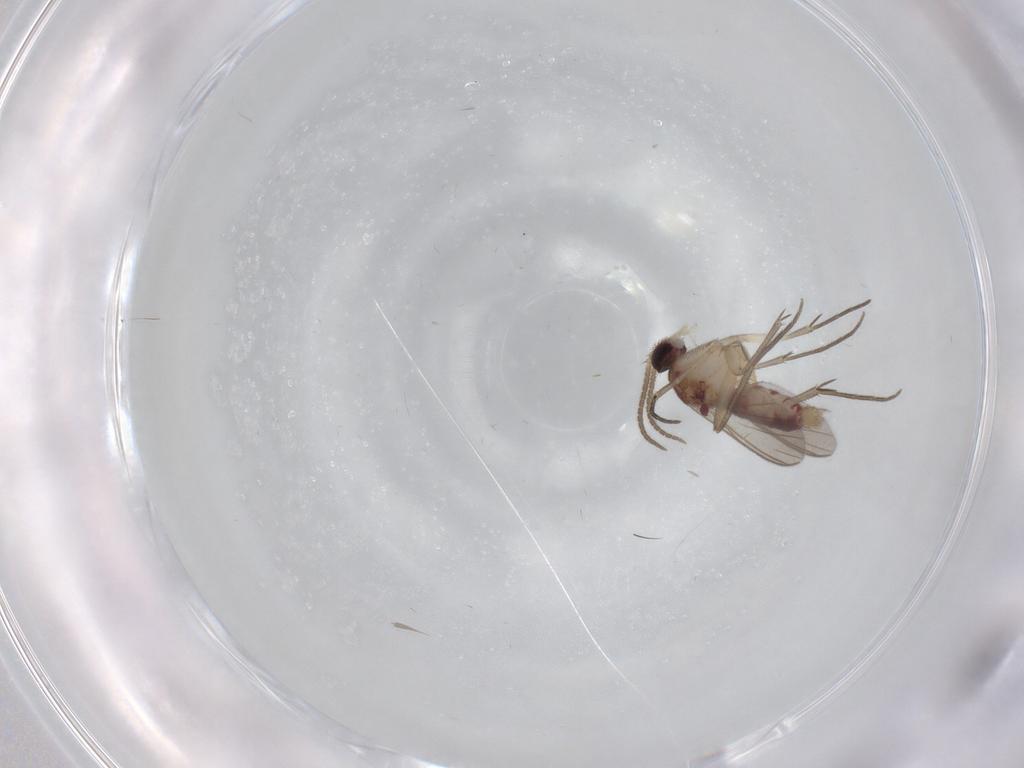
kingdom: Animalia
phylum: Arthropoda
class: Insecta
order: Diptera
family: Mycetophilidae
